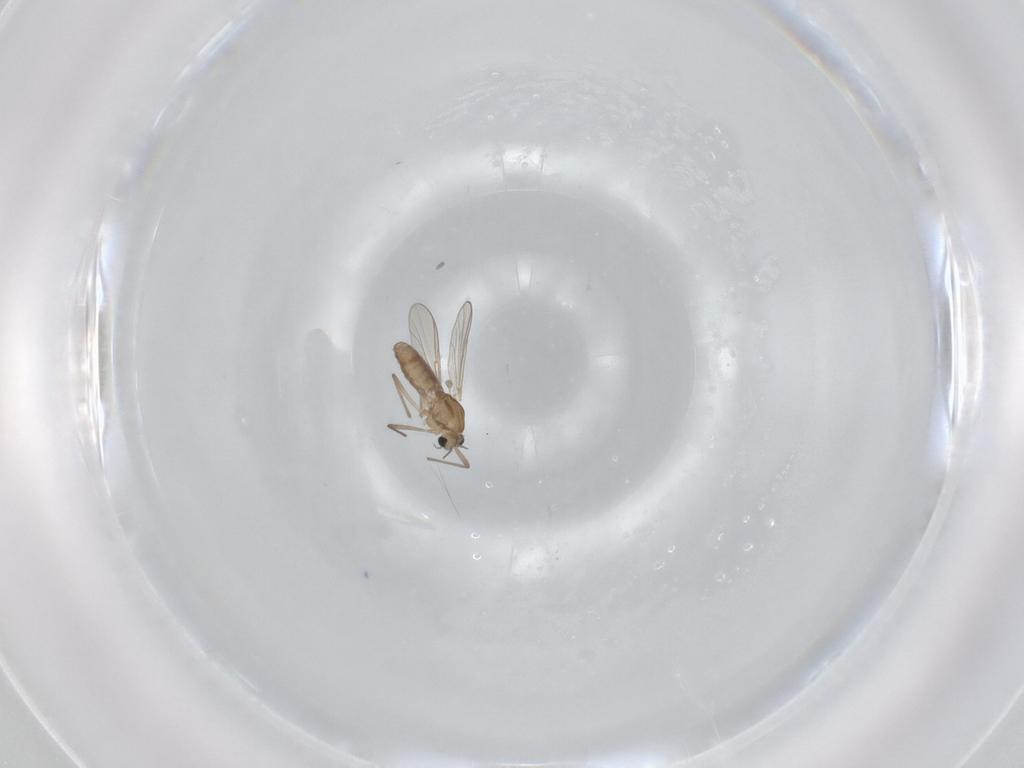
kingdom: Animalia
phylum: Arthropoda
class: Insecta
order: Diptera
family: Chironomidae
